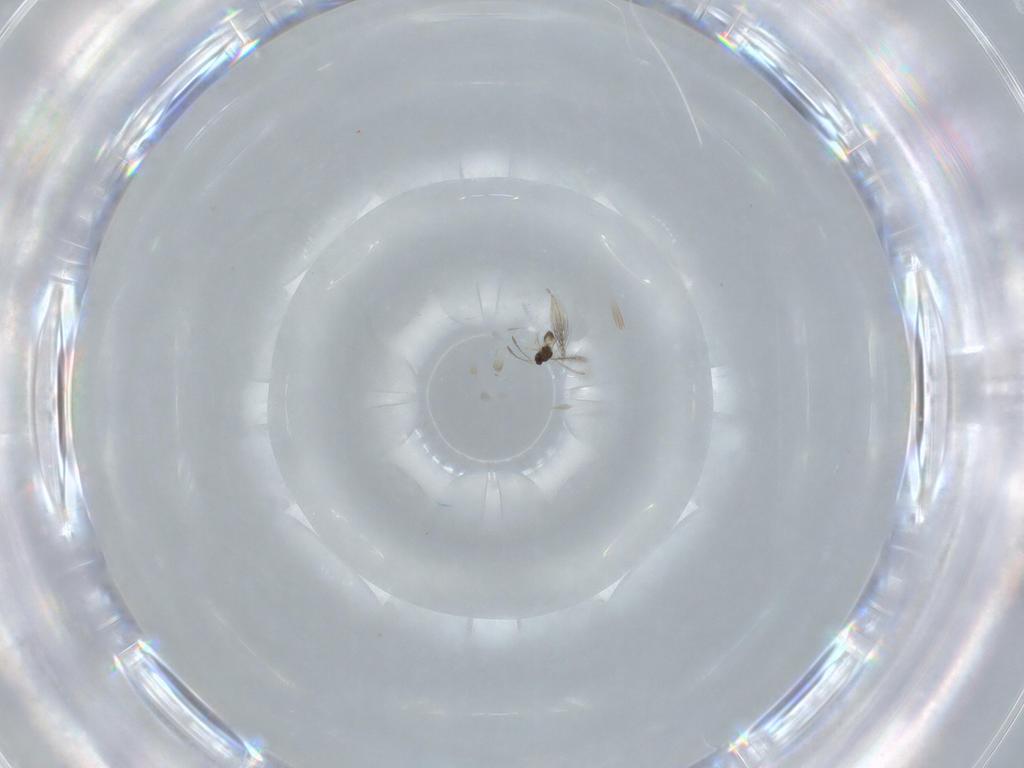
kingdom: Animalia
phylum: Arthropoda
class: Insecta
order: Hymenoptera
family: Mymaridae
